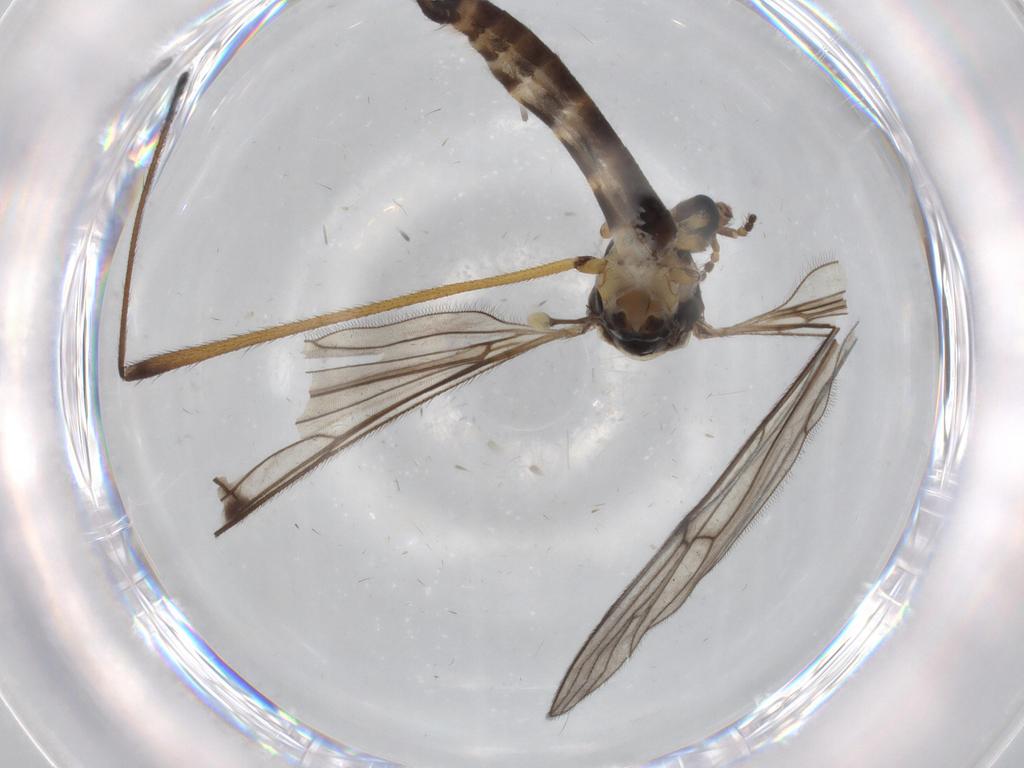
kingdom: Animalia
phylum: Arthropoda
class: Insecta
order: Diptera
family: Limoniidae
